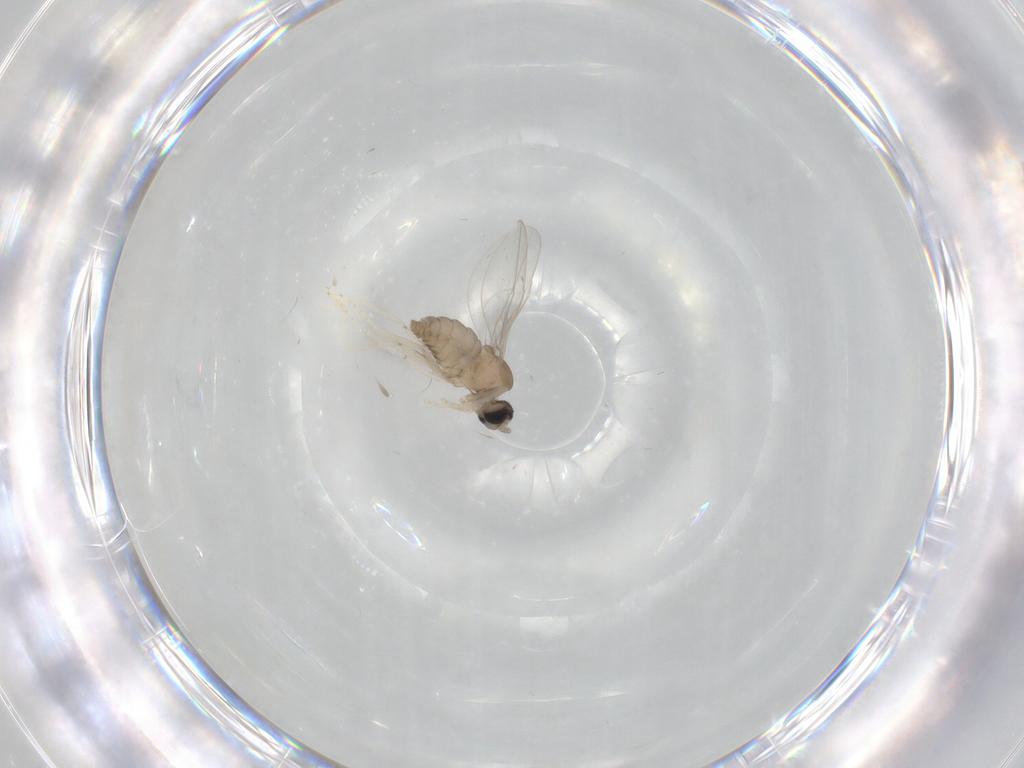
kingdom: Animalia
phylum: Arthropoda
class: Insecta
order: Diptera
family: Cecidomyiidae
